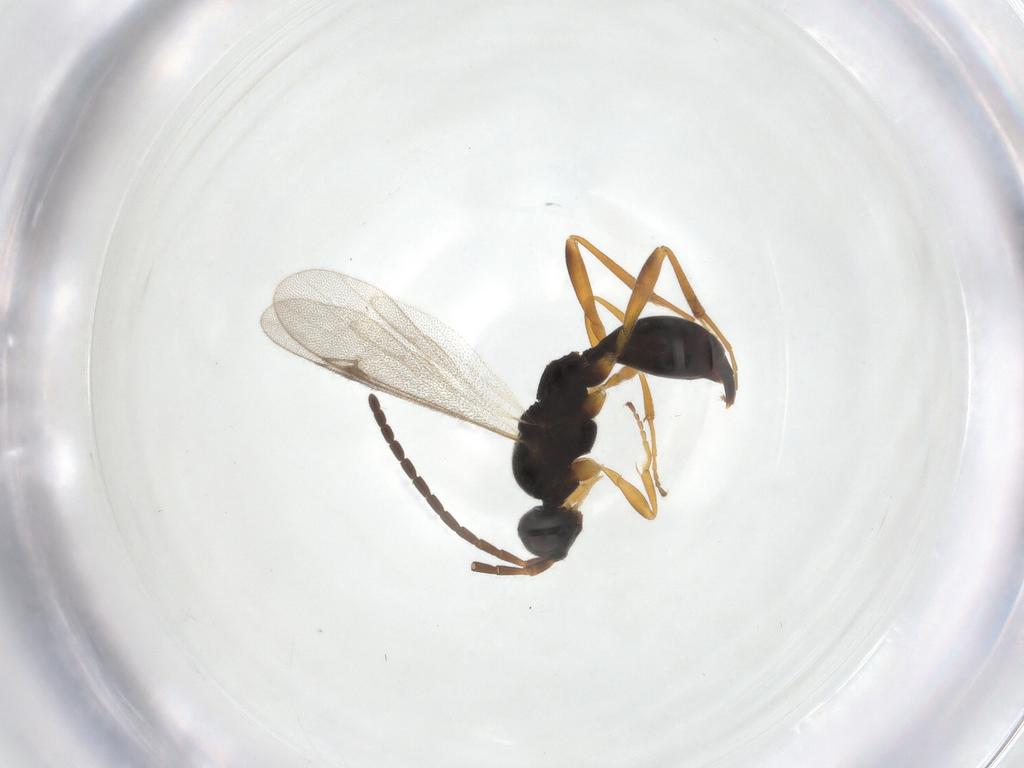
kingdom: Animalia
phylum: Arthropoda
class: Insecta
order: Hymenoptera
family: Proctotrupidae
